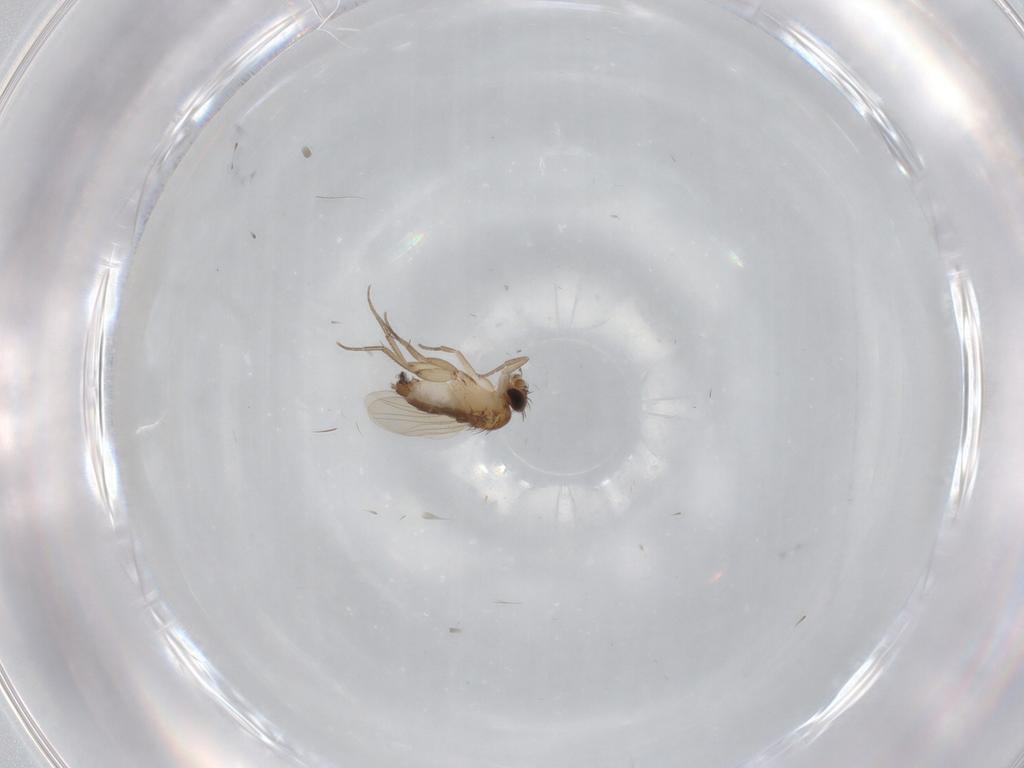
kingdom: Animalia
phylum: Arthropoda
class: Insecta
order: Diptera
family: Phoridae
